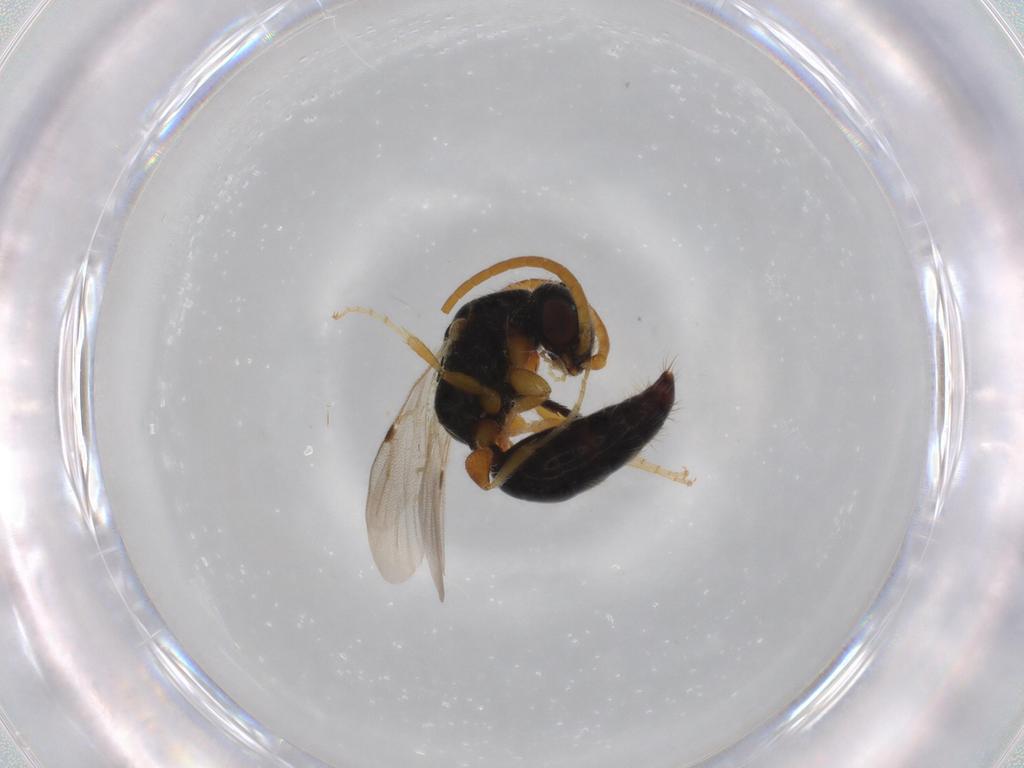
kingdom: Animalia
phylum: Arthropoda
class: Insecta
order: Hymenoptera
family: Bethylidae
